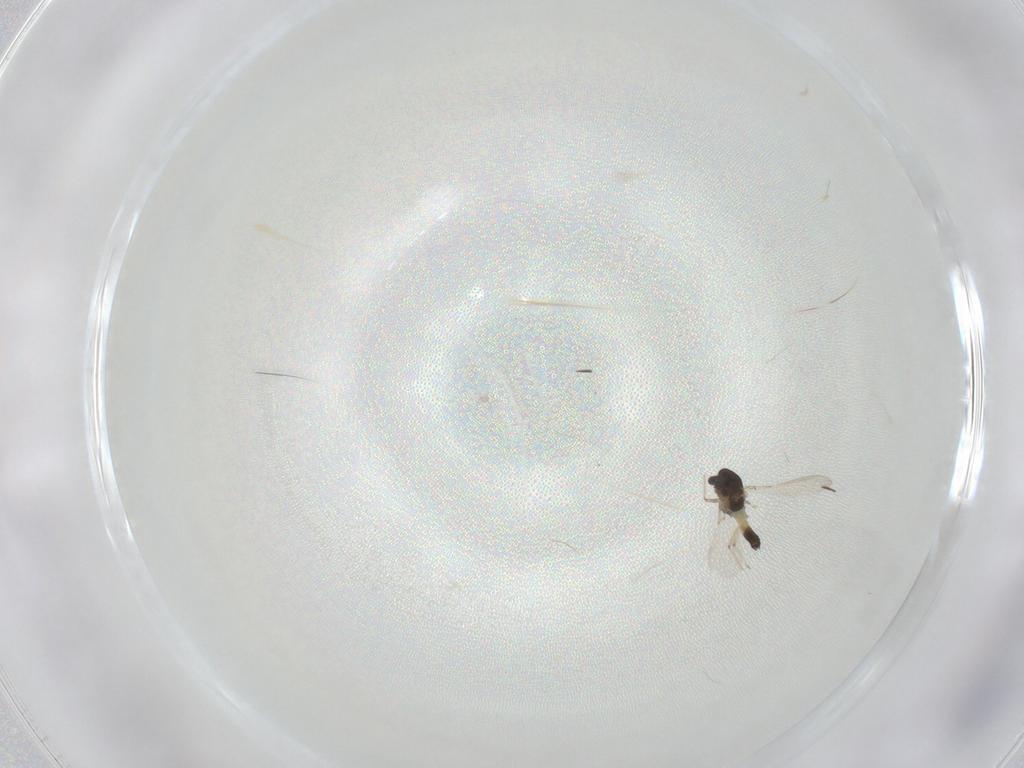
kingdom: Animalia
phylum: Arthropoda
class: Insecta
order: Diptera
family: Chironomidae
